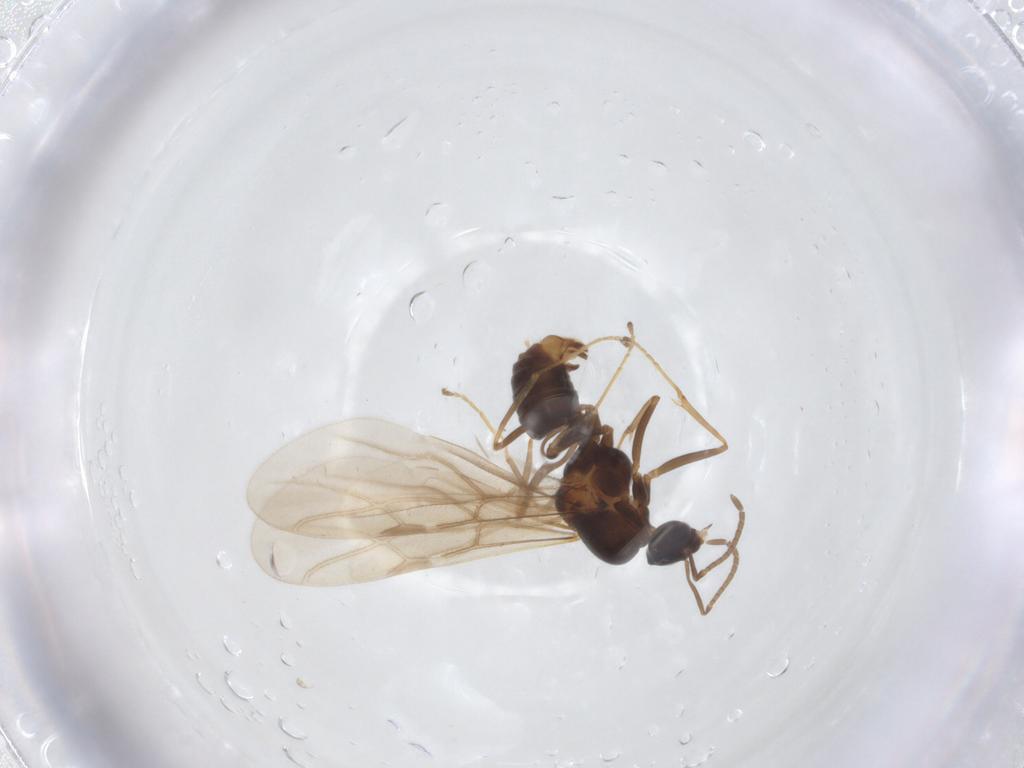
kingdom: Animalia
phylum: Arthropoda
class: Insecta
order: Hymenoptera
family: Formicidae
